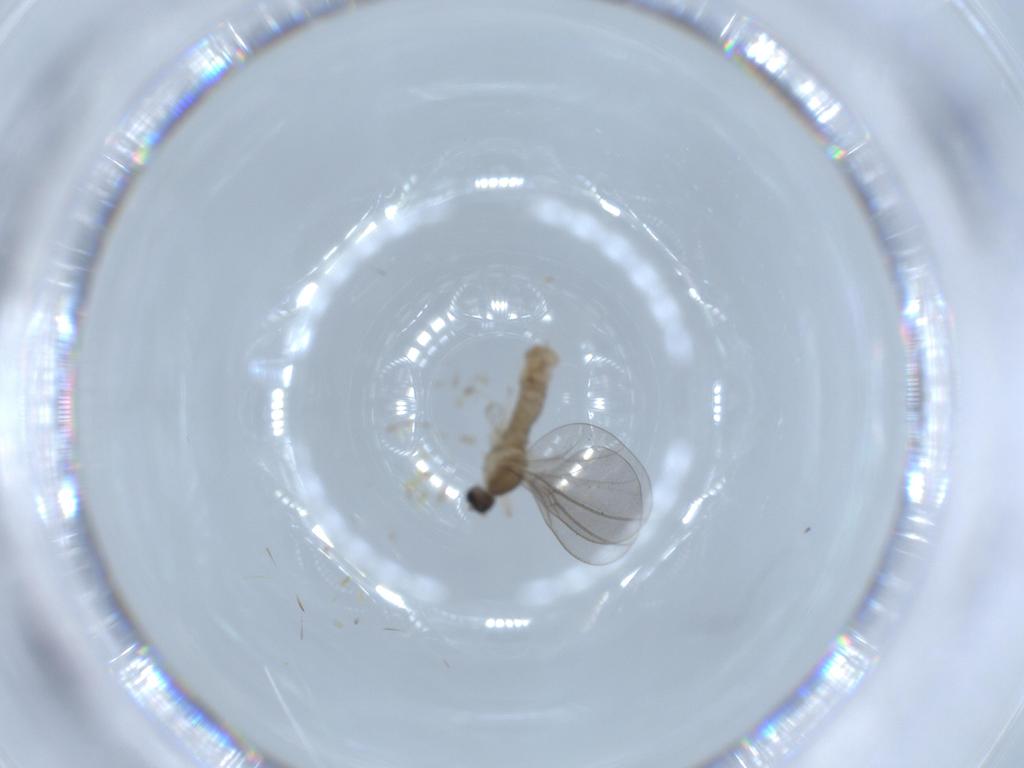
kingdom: Animalia
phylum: Arthropoda
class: Insecta
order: Diptera
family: Cecidomyiidae
